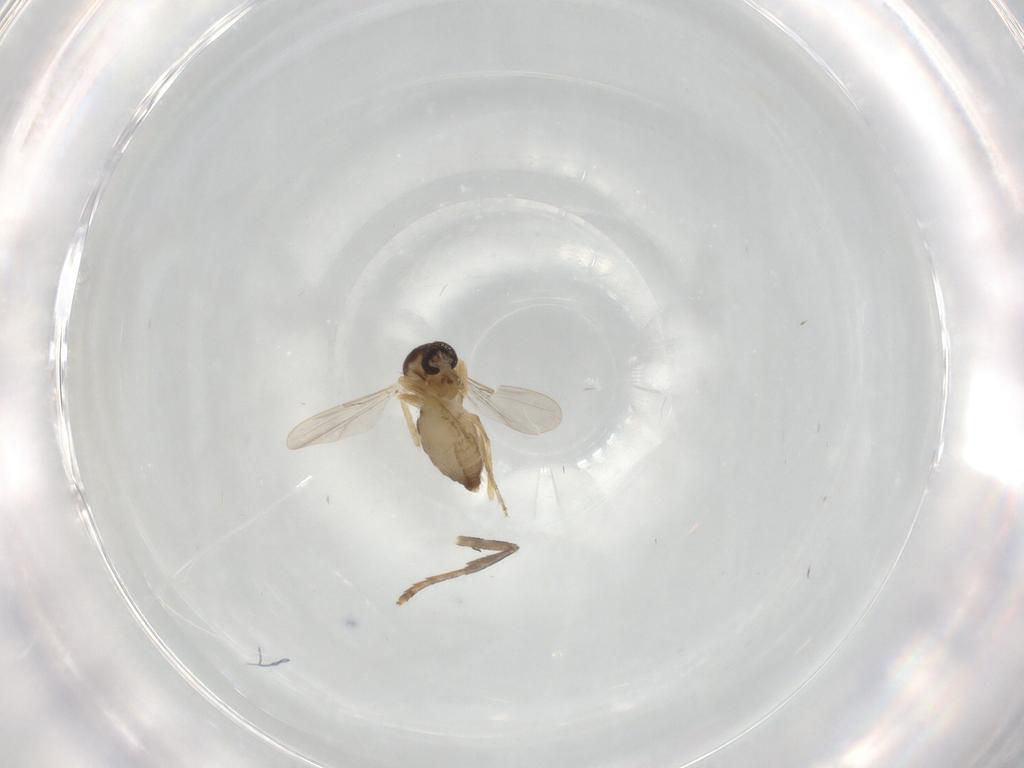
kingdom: Animalia
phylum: Arthropoda
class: Insecta
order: Diptera
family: Ceratopogonidae
